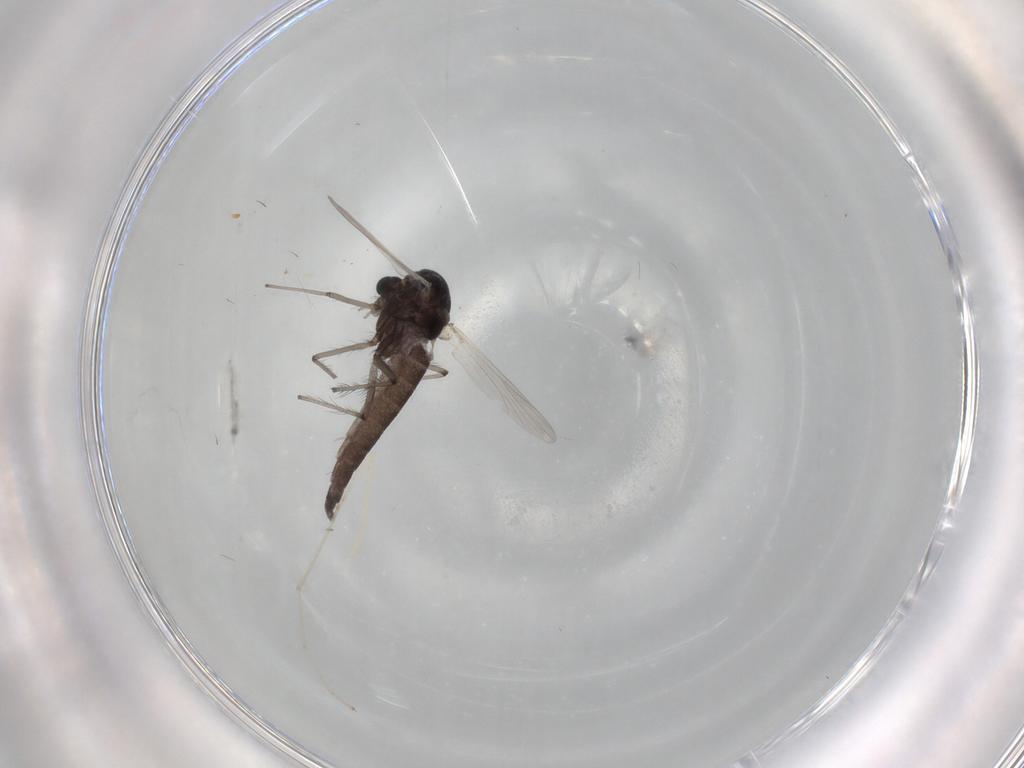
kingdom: Animalia
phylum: Arthropoda
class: Insecta
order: Diptera
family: Chironomidae
